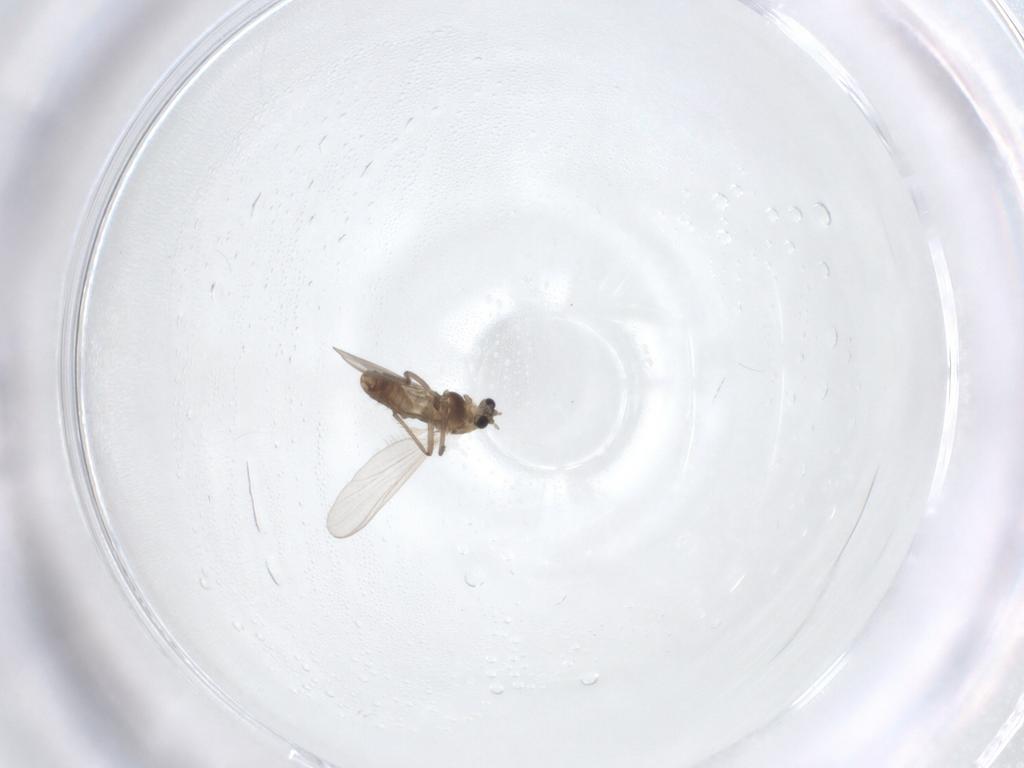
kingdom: Animalia
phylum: Arthropoda
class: Insecta
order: Diptera
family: Chironomidae
